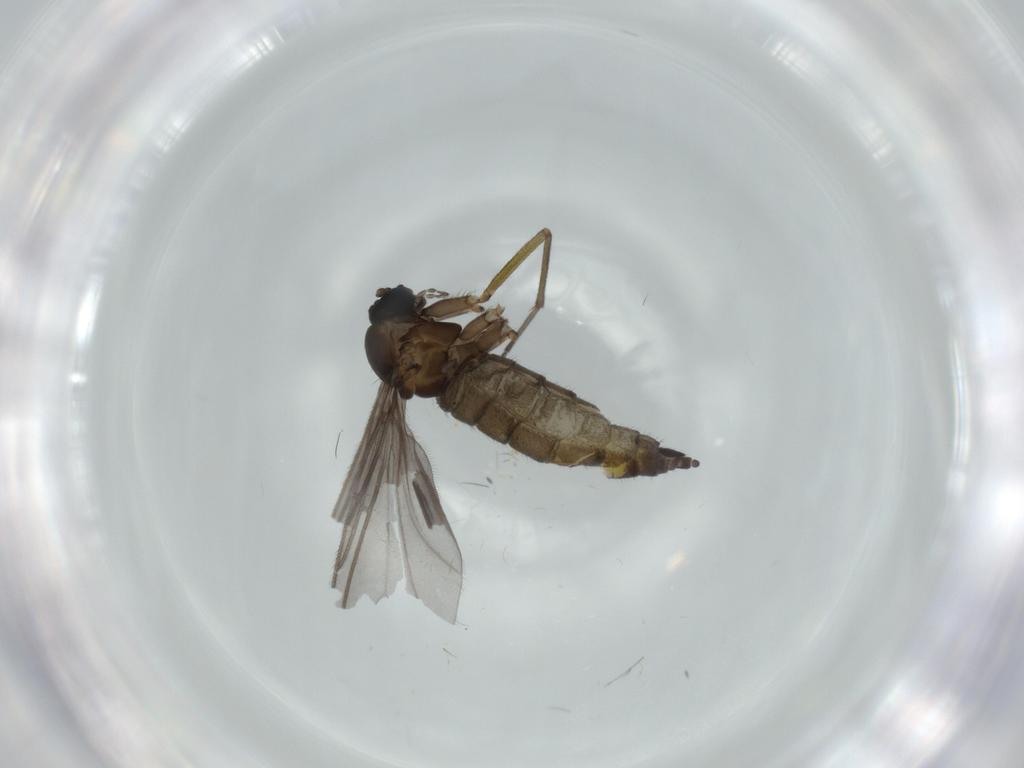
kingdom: Animalia
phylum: Arthropoda
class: Insecta
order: Diptera
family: Sciaridae
